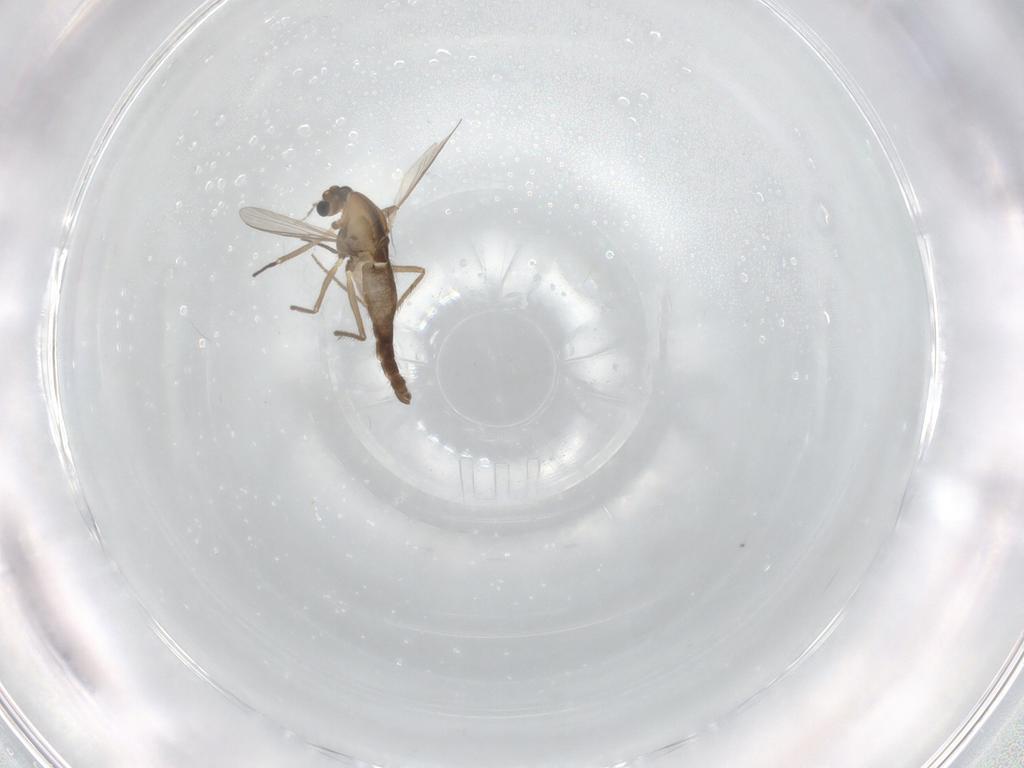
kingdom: Animalia
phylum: Arthropoda
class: Insecta
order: Diptera
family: Chironomidae
